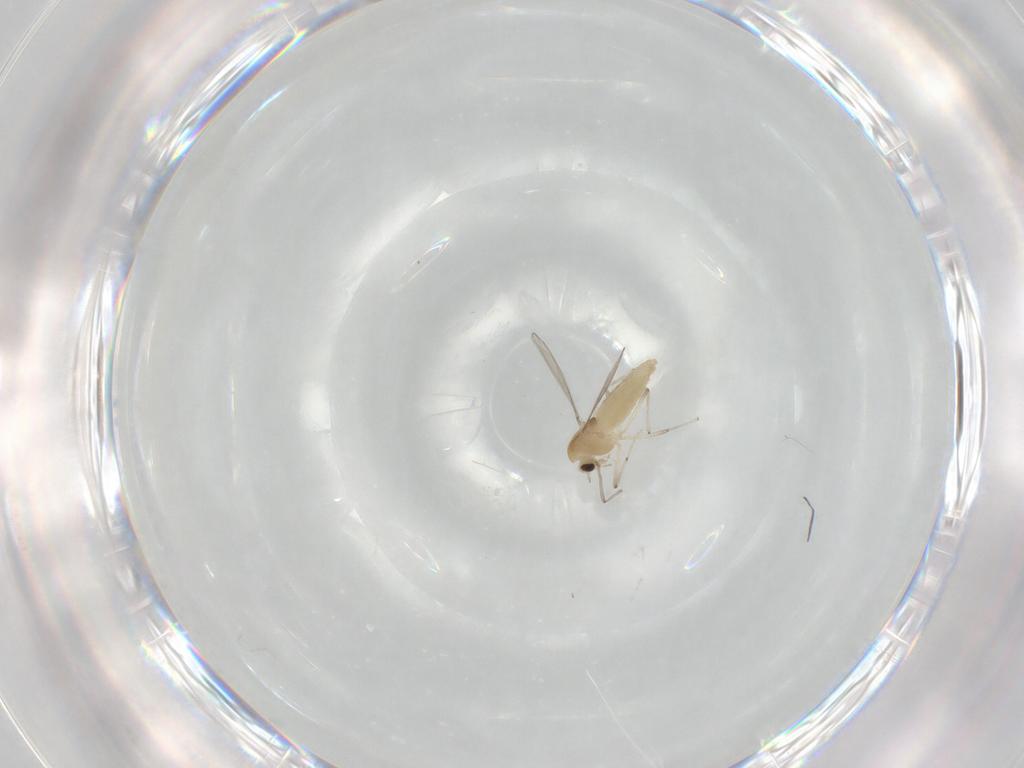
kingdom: Animalia
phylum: Arthropoda
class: Insecta
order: Diptera
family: Chironomidae
